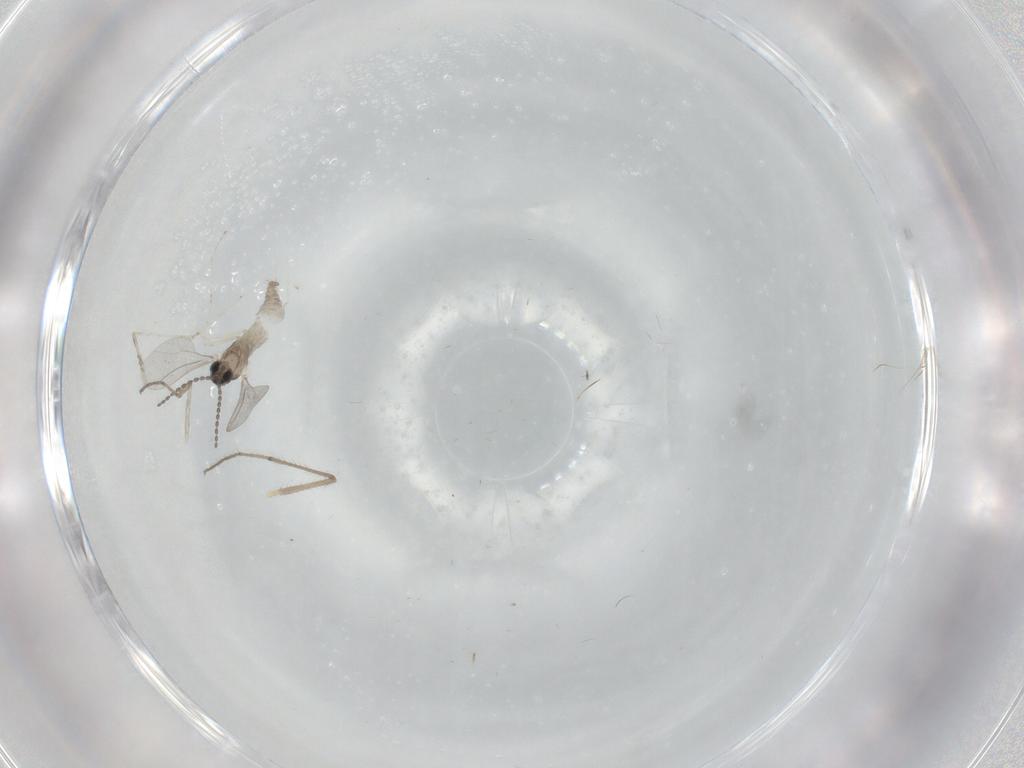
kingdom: Animalia
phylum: Arthropoda
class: Insecta
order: Diptera
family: Cecidomyiidae
